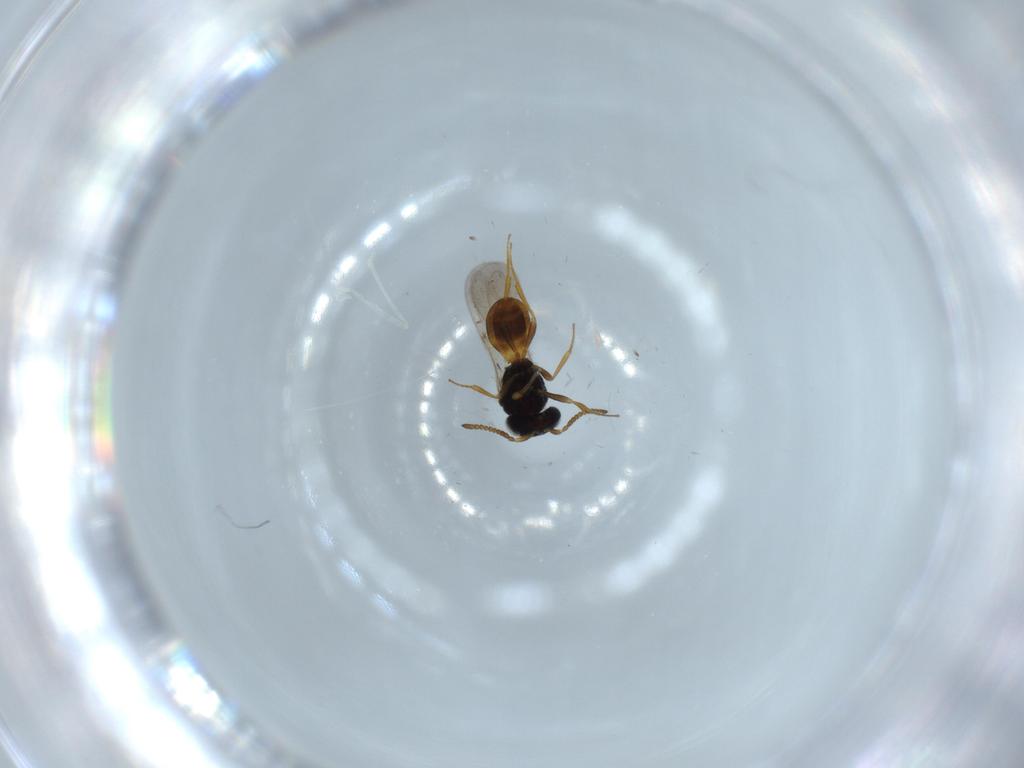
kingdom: Animalia
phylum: Arthropoda
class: Insecta
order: Hymenoptera
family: Scelionidae
